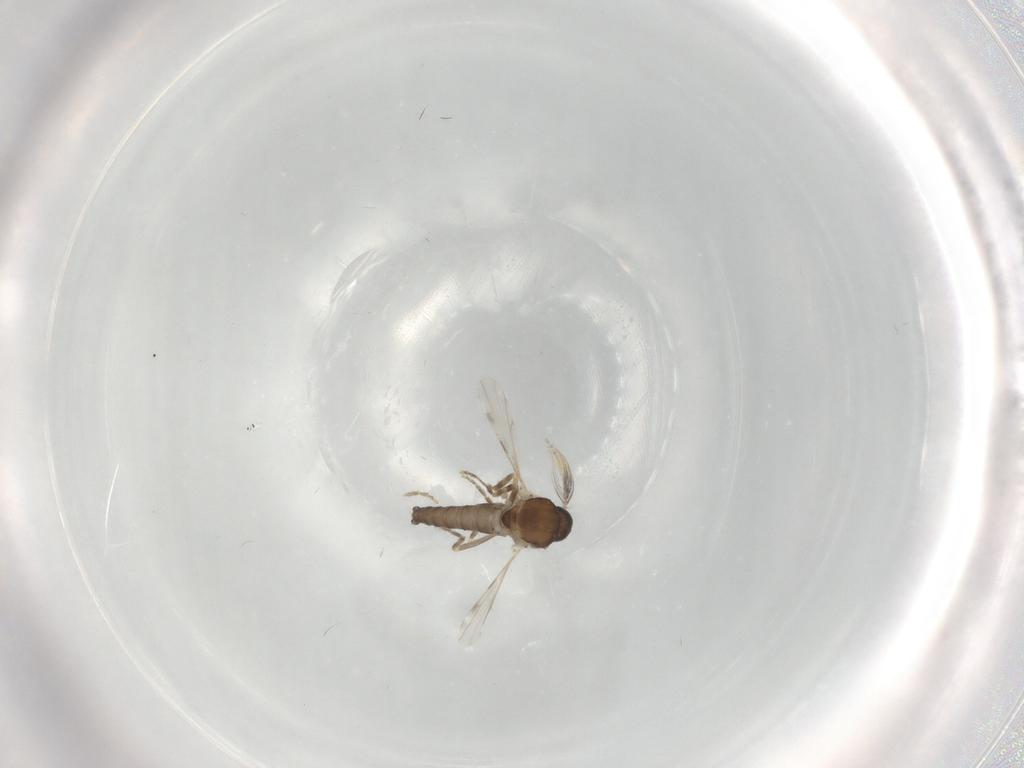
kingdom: Animalia
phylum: Arthropoda
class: Insecta
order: Diptera
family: Ceratopogonidae
